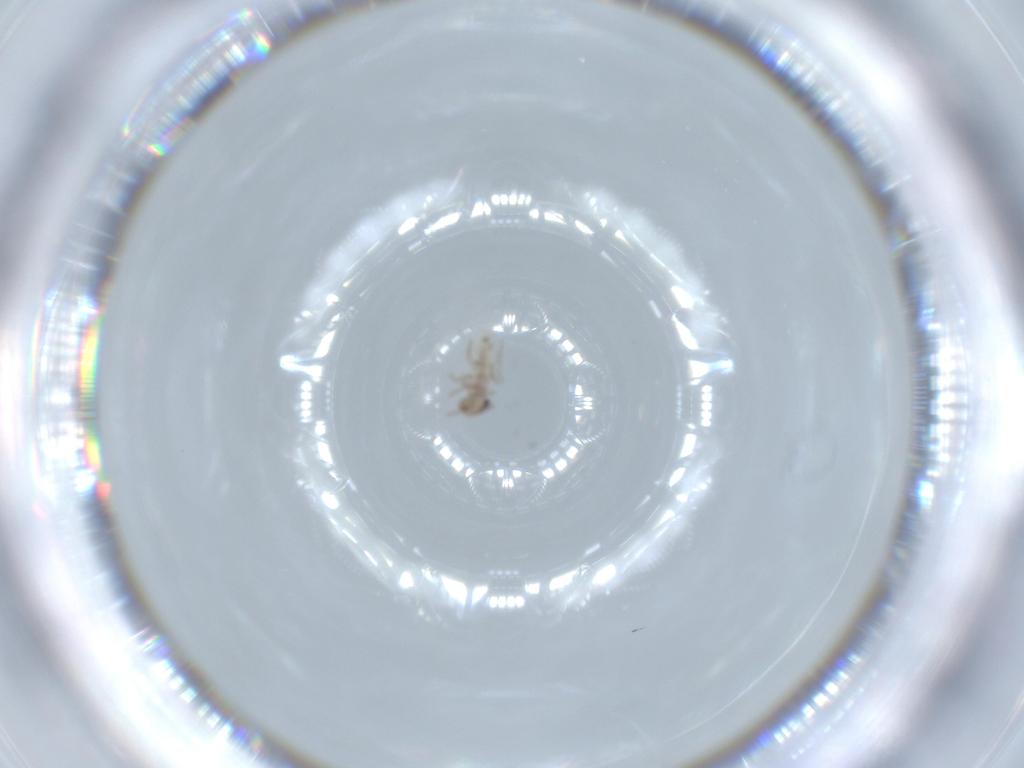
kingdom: Animalia
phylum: Arthropoda
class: Insecta
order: Psocodea
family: Lepidopsocidae
